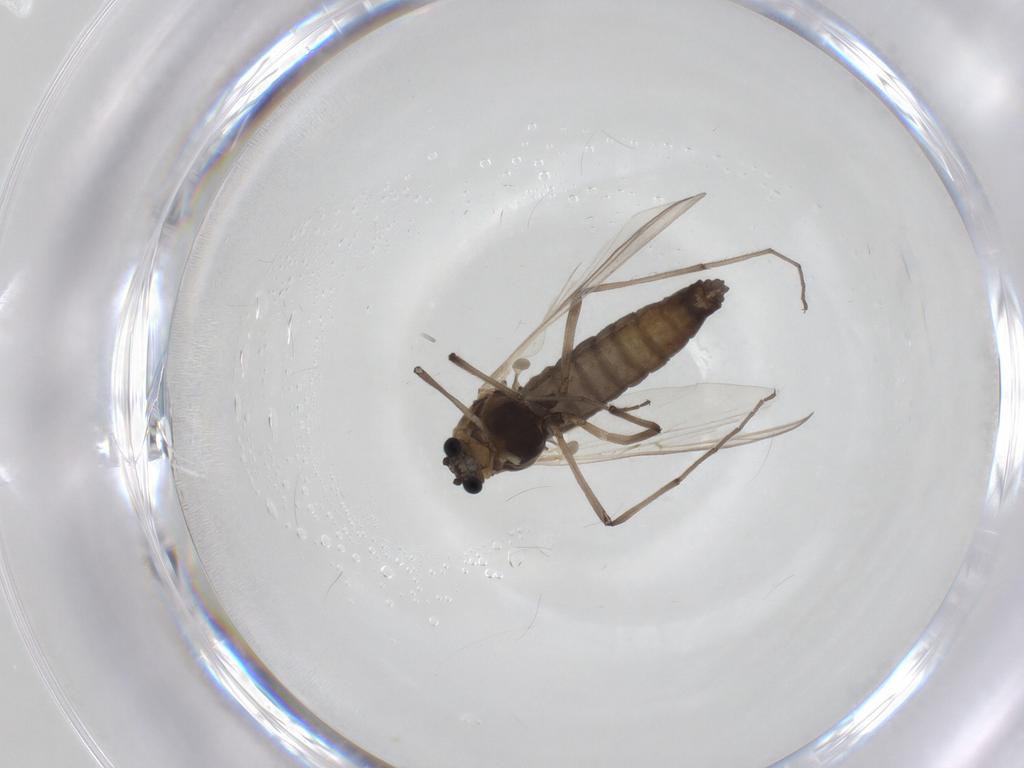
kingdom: Animalia
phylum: Arthropoda
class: Insecta
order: Diptera
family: Chironomidae
